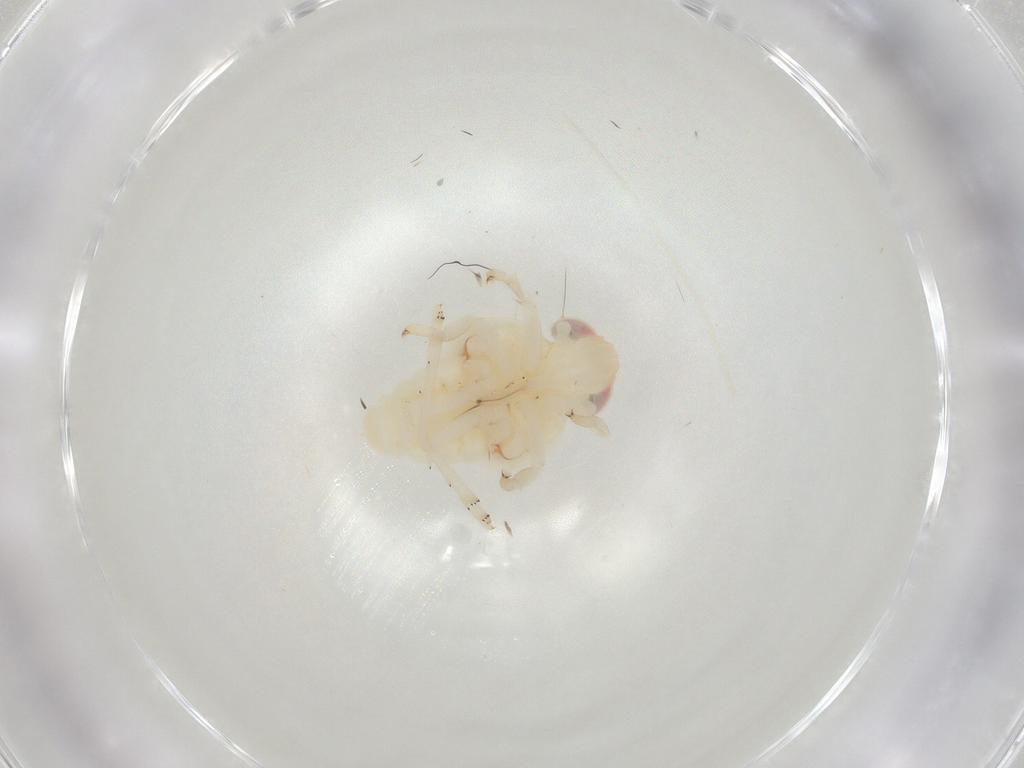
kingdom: Animalia
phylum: Arthropoda
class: Insecta
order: Hemiptera
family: Nogodinidae
